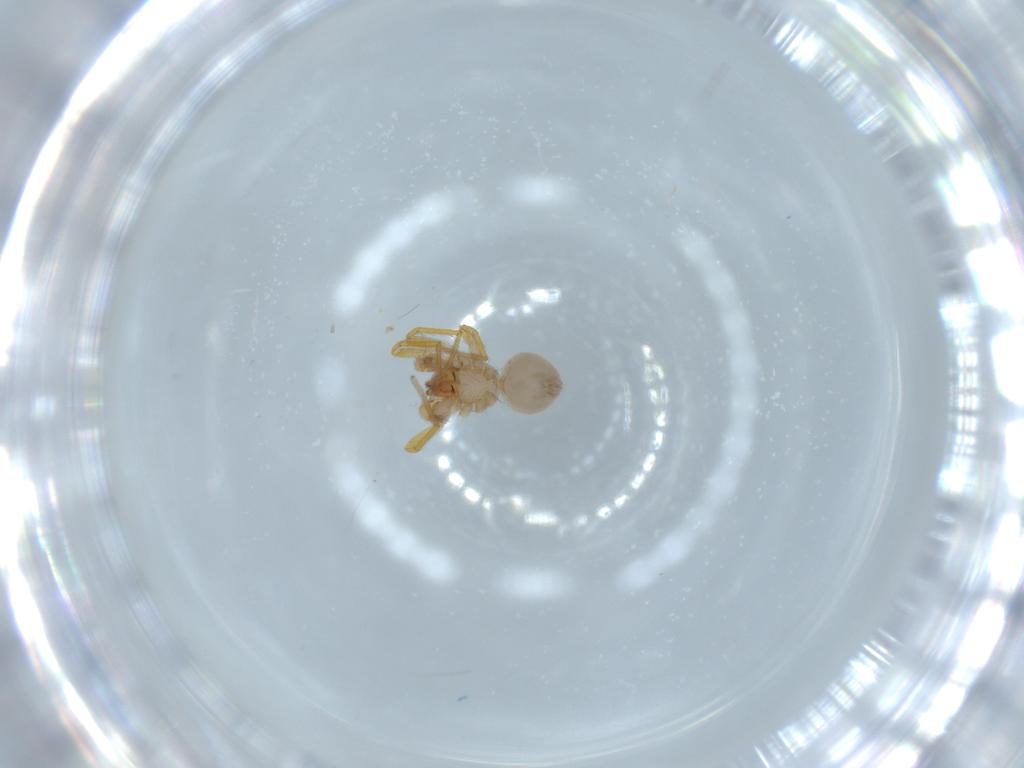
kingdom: Animalia
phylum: Arthropoda
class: Arachnida
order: Araneae
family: Oonopidae
